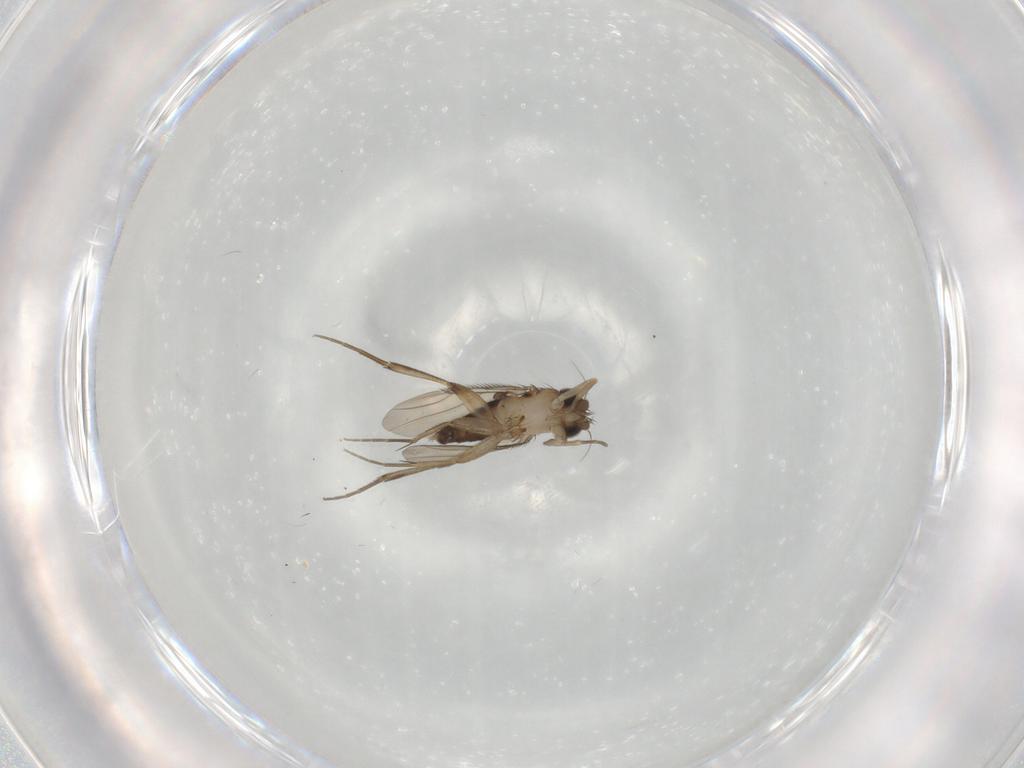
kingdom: Animalia
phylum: Arthropoda
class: Insecta
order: Diptera
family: Phoridae
